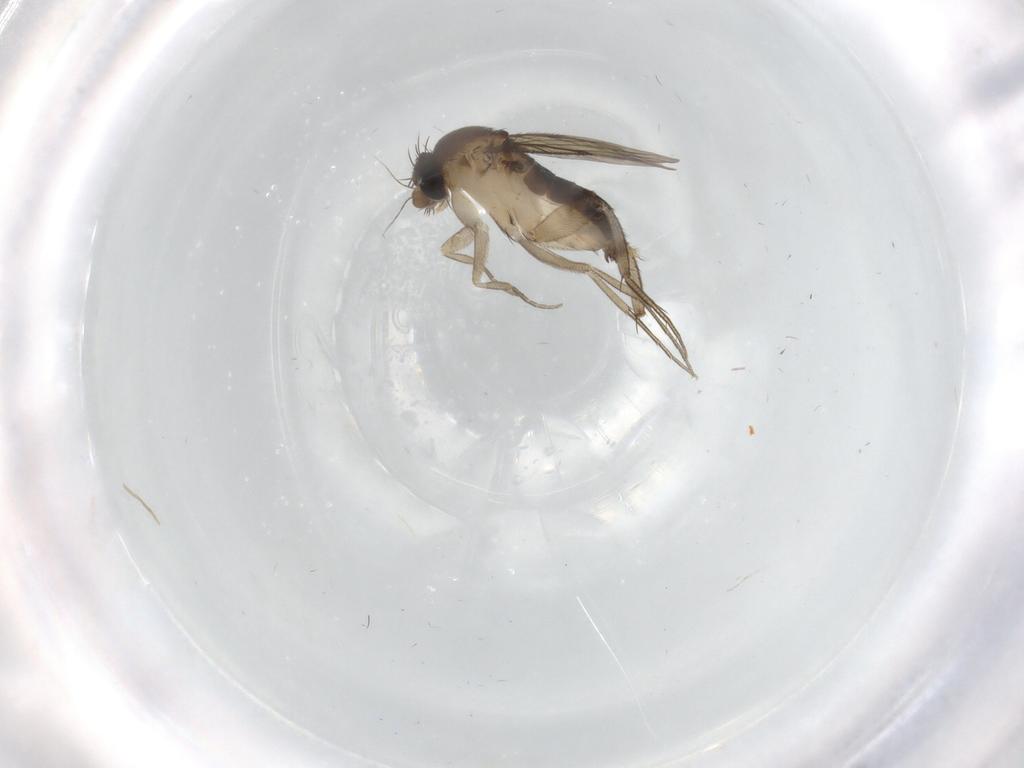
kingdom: Animalia
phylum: Arthropoda
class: Insecta
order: Diptera
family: Phoridae
